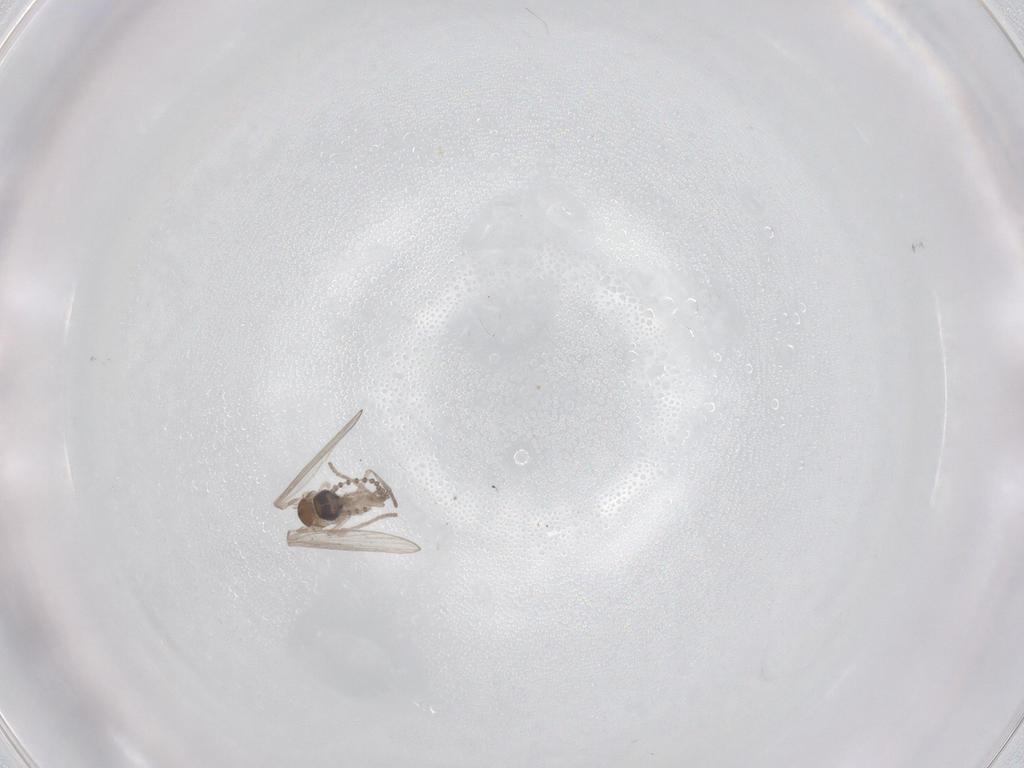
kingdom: Animalia
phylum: Arthropoda
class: Insecta
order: Diptera
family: Psychodidae
